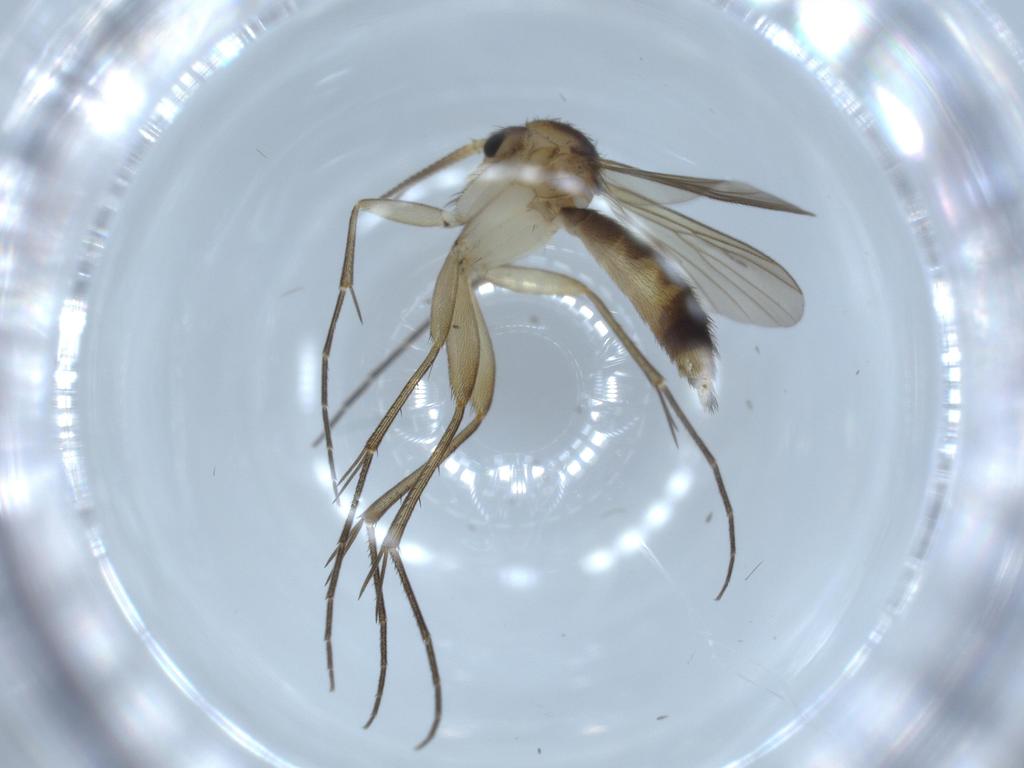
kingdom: Animalia
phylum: Arthropoda
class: Insecta
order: Diptera
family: Cecidomyiidae
